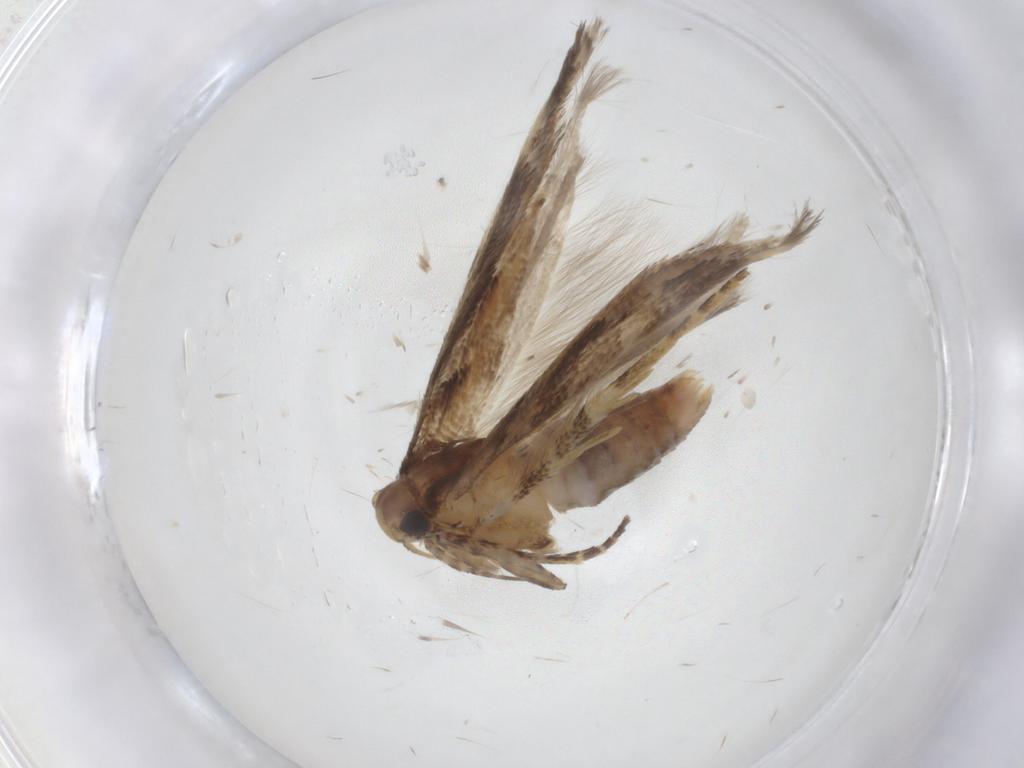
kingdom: Animalia
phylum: Arthropoda
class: Insecta
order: Lepidoptera
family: Gelechiidae
